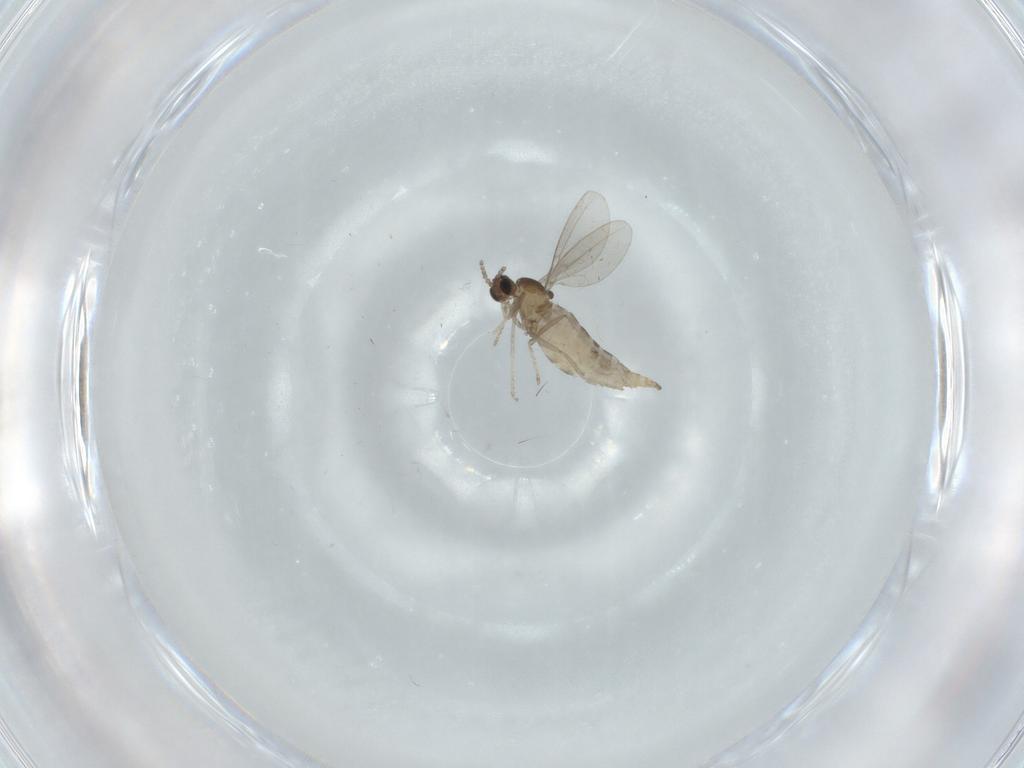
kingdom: Animalia
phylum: Arthropoda
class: Insecta
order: Diptera
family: Cecidomyiidae
